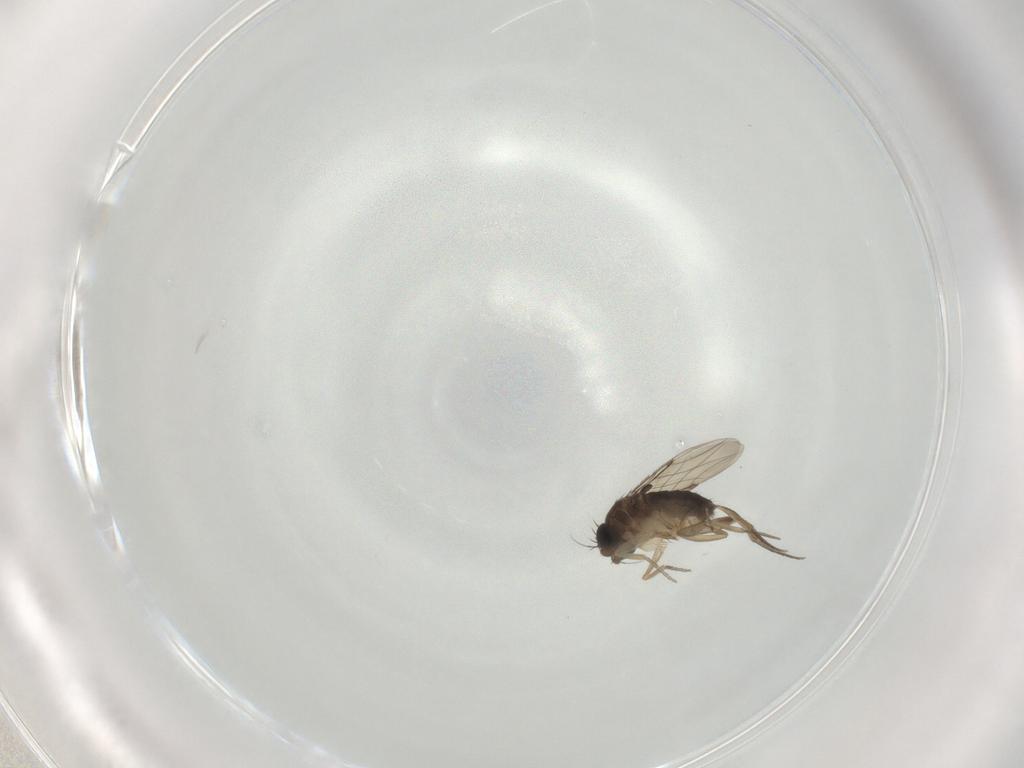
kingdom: Animalia
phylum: Arthropoda
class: Insecta
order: Diptera
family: Phoridae
